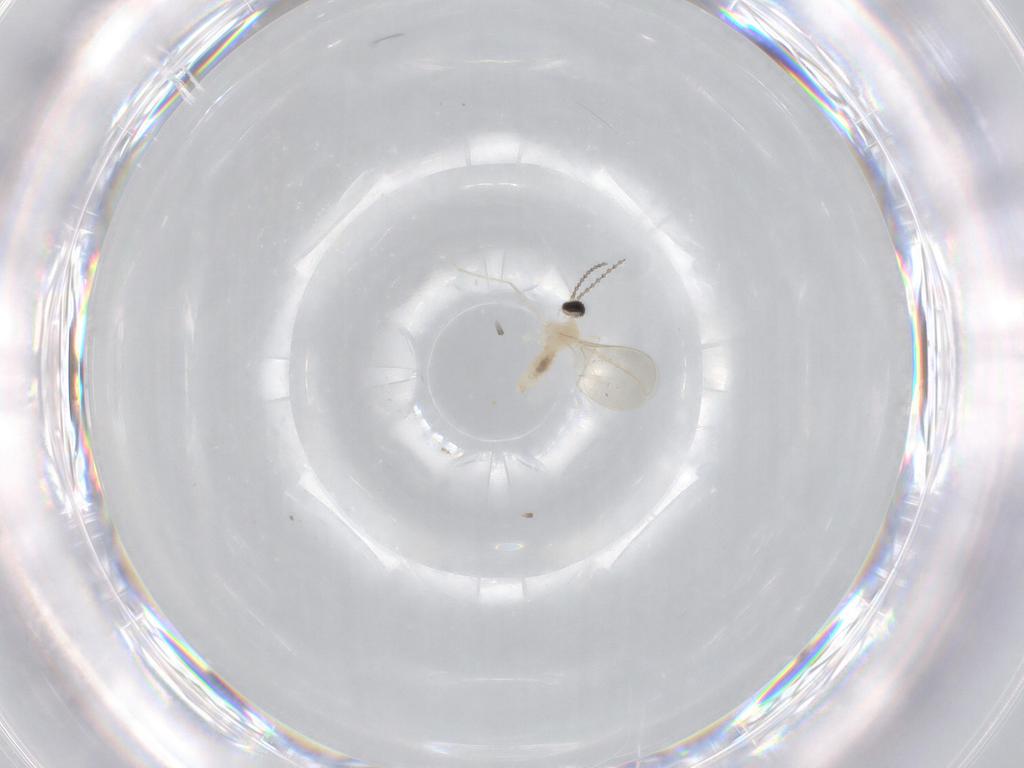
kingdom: Animalia
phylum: Arthropoda
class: Insecta
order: Diptera
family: Cecidomyiidae
